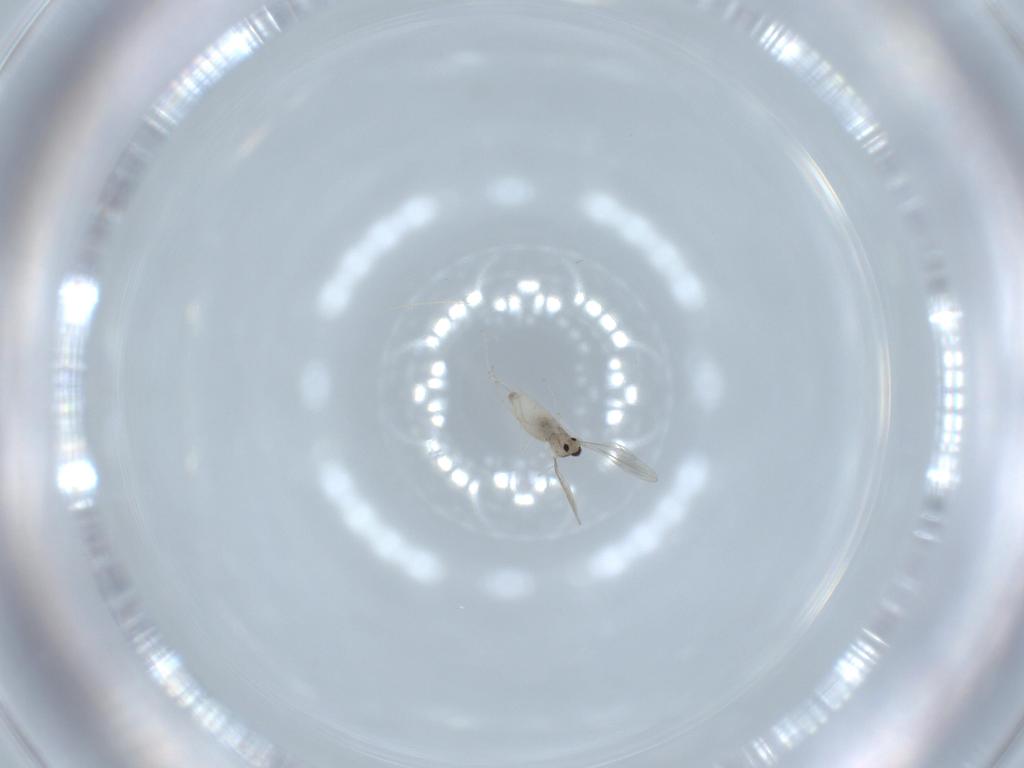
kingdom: Animalia
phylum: Arthropoda
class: Insecta
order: Diptera
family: Cecidomyiidae
